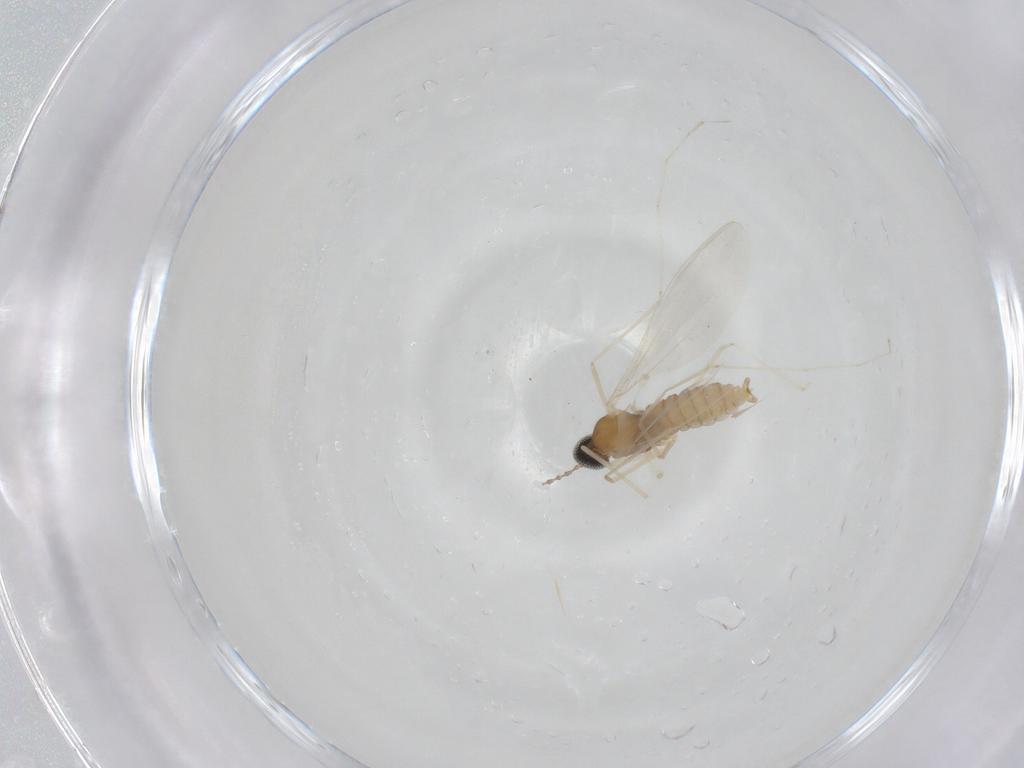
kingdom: Animalia
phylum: Arthropoda
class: Insecta
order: Diptera
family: Cecidomyiidae
